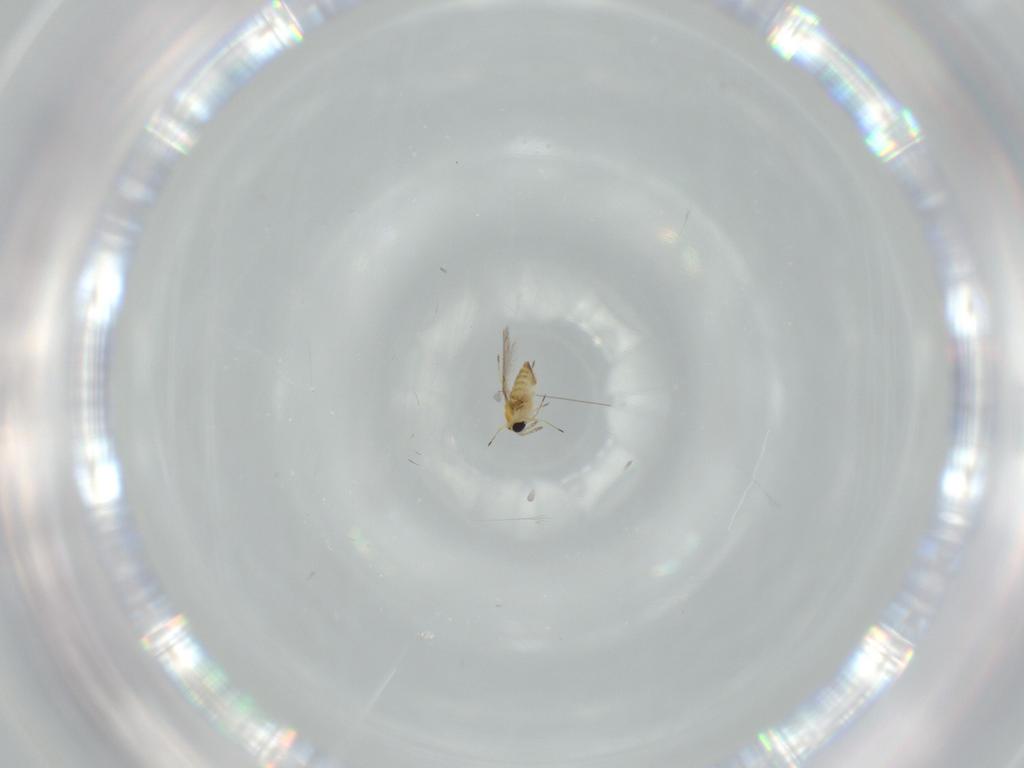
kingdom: Animalia
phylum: Arthropoda
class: Insecta
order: Hymenoptera
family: Trichogrammatidae
